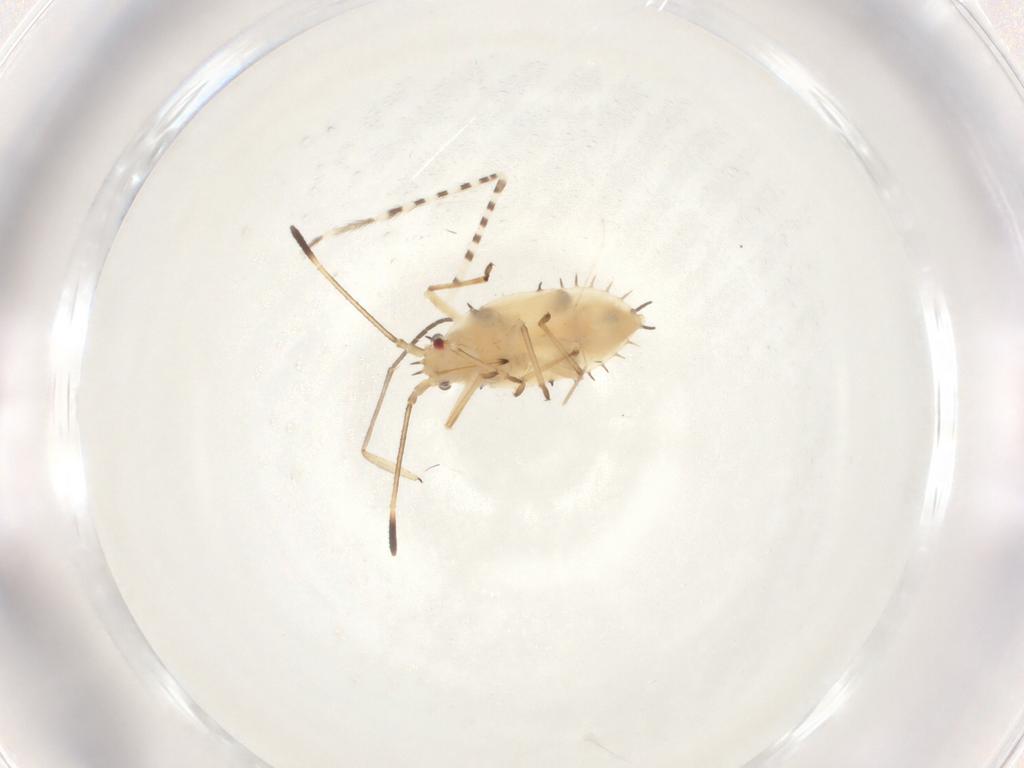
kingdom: Animalia
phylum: Arthropoda
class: Insecta
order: Hemiptera
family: Tingidae
